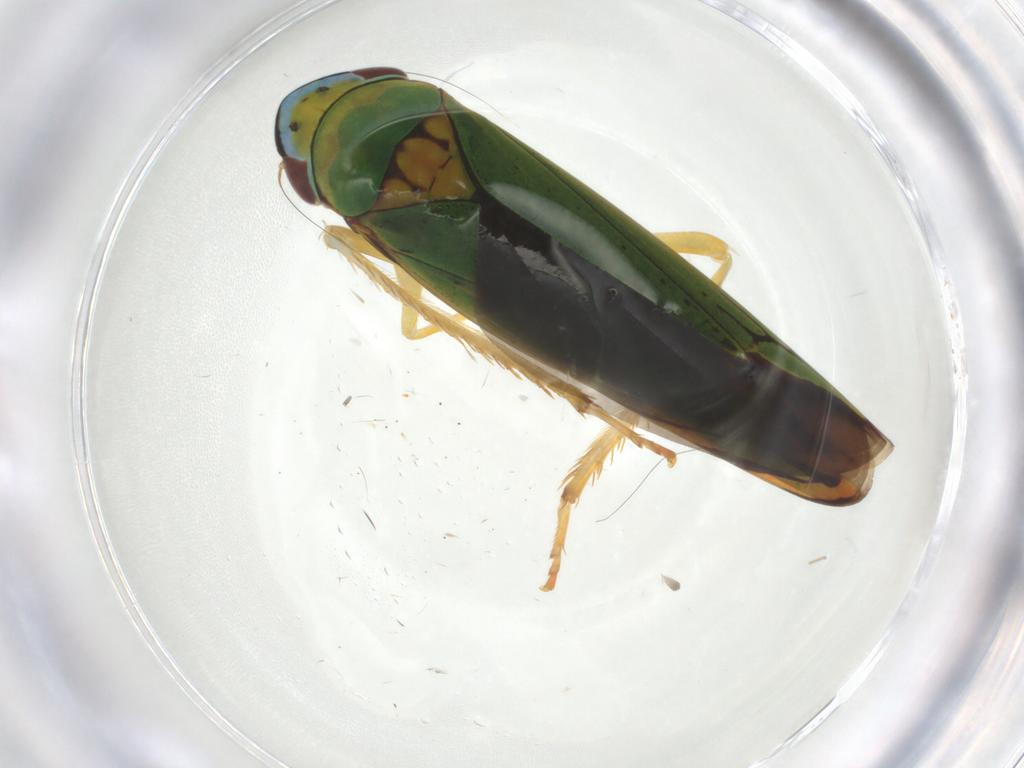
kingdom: Animalia
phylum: Arthropoda
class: Insecta
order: Hemiptera
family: Cicadellidae
